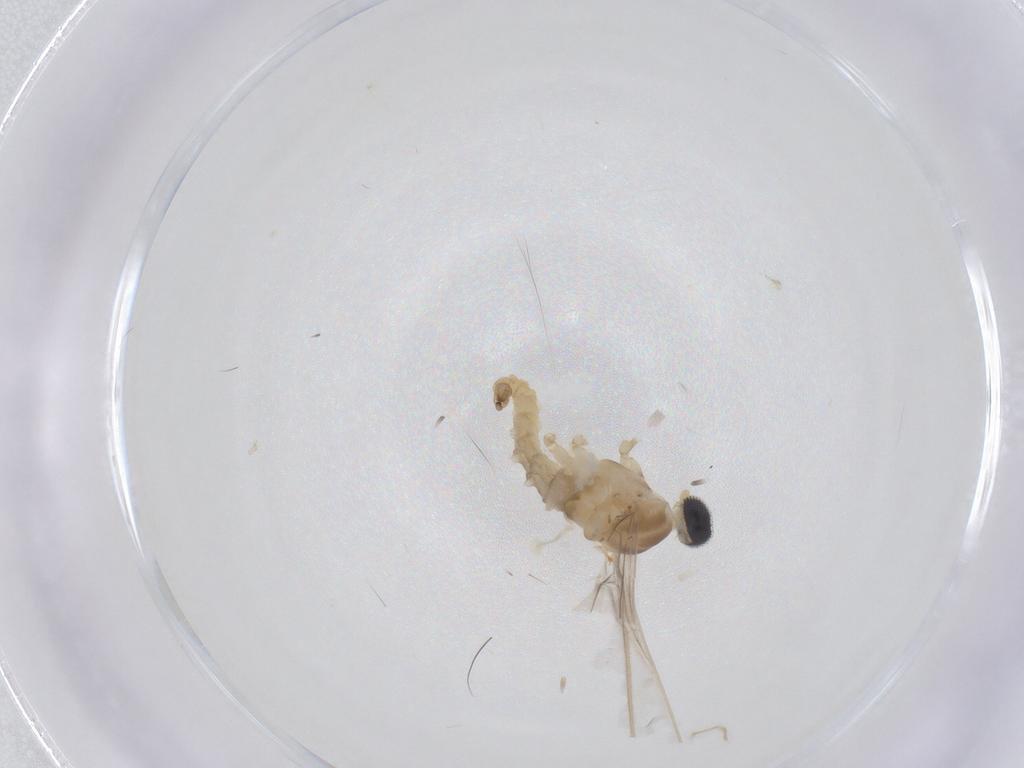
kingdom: Animalia
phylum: Arthropoda
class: Insecta
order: Diptera
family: Cecidomyiidae
